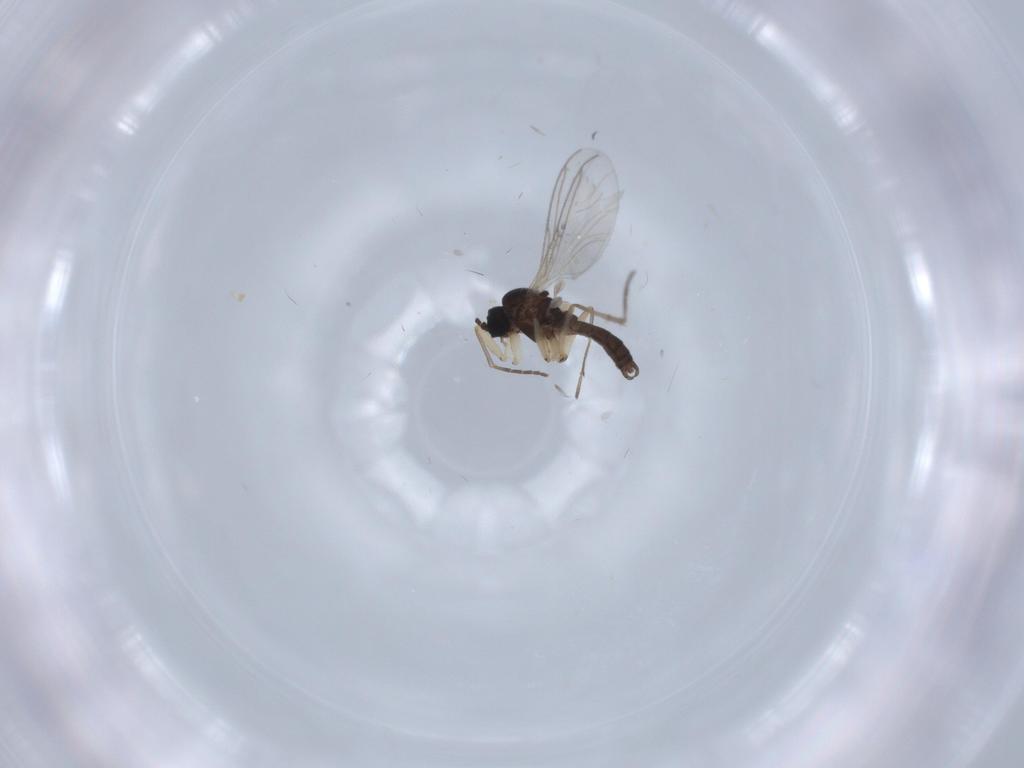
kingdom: Animalia
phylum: Arthropoda
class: Insecta
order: Diptera
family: Sciaridae
